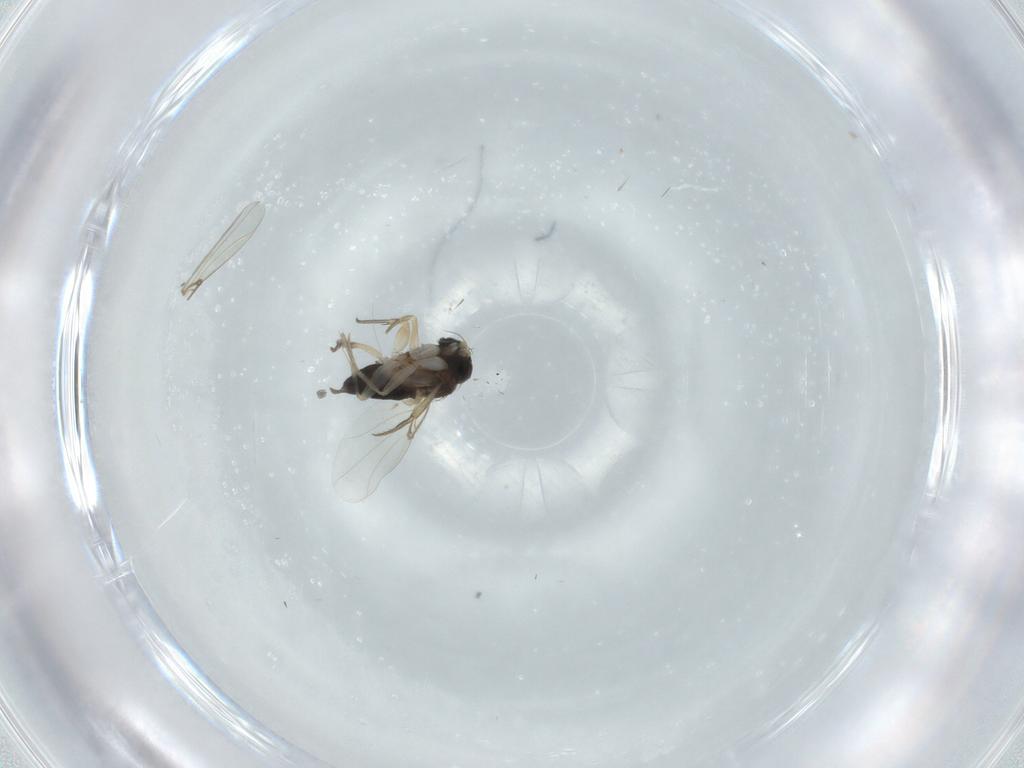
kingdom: Animalia
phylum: Arthropoda
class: Insecta
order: Diptera
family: Phoridae
